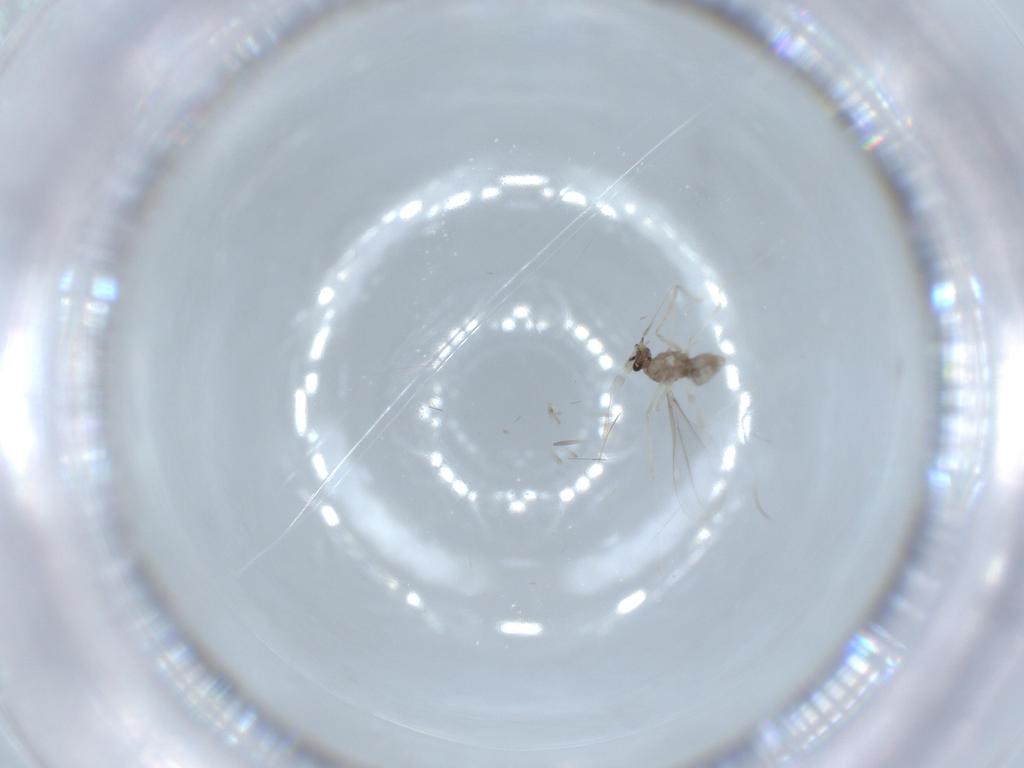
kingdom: Animalia
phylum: Arthropoda
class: Insecta
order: Diptera
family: Cecidomyiidae
